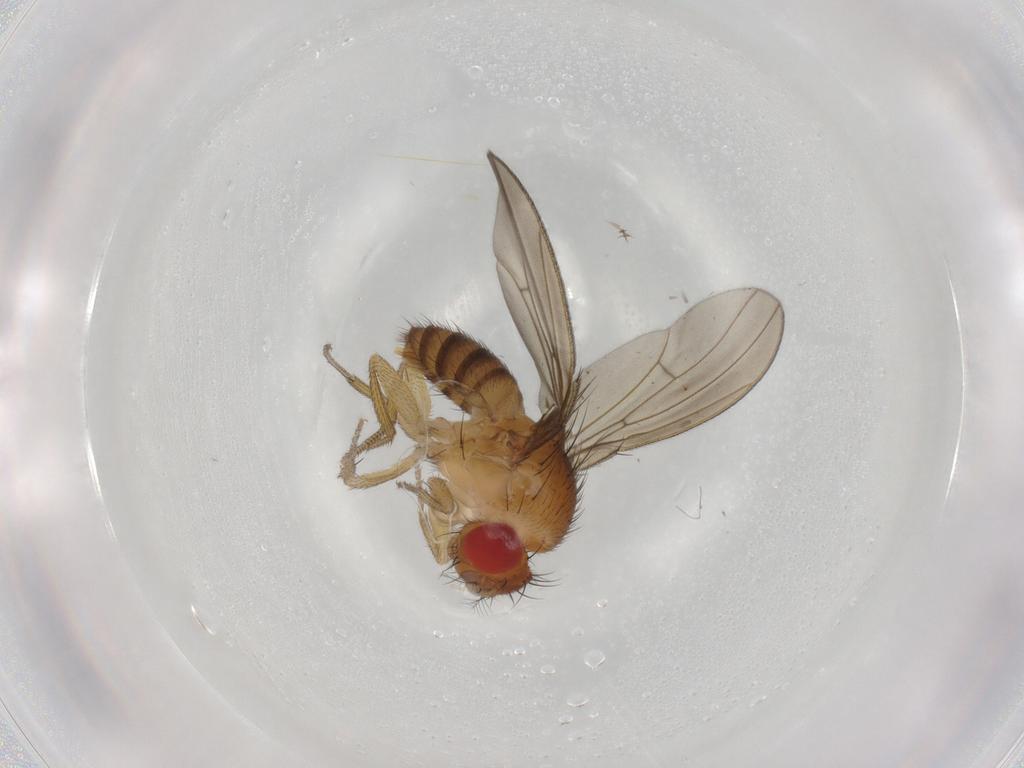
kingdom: Animalia
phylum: Arthropoda
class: Insecta
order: Diptera
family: Drosophilidae
